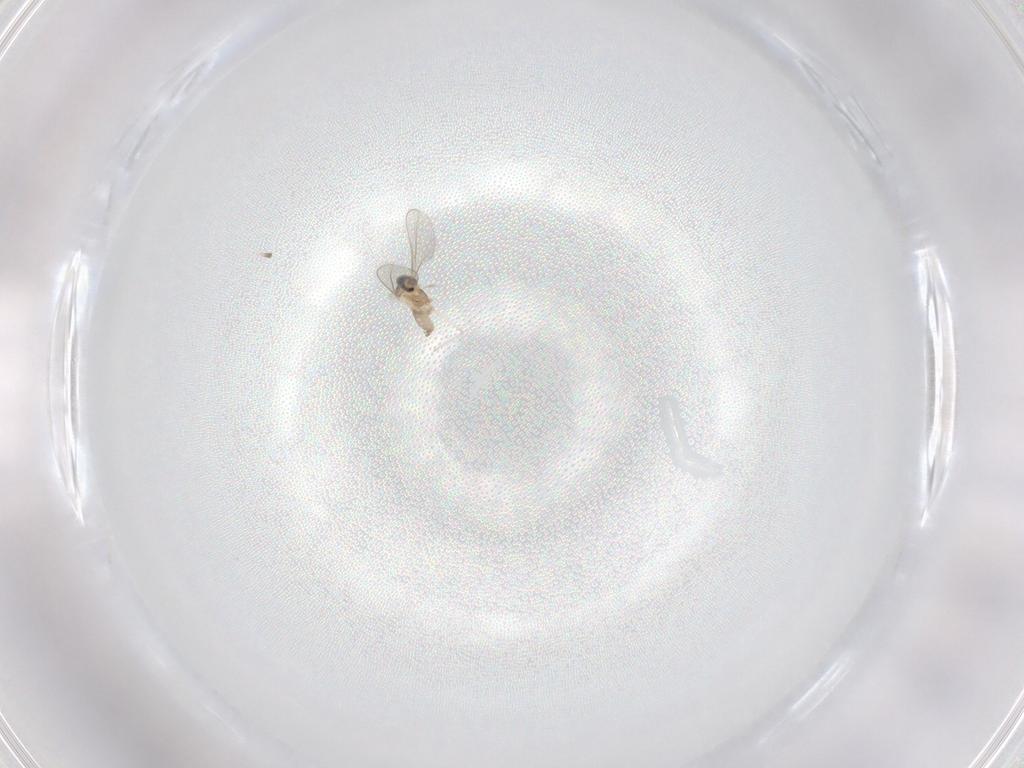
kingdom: Animalia
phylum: Arthropoda
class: Insecta
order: Diptera
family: Cecidomyiidae
